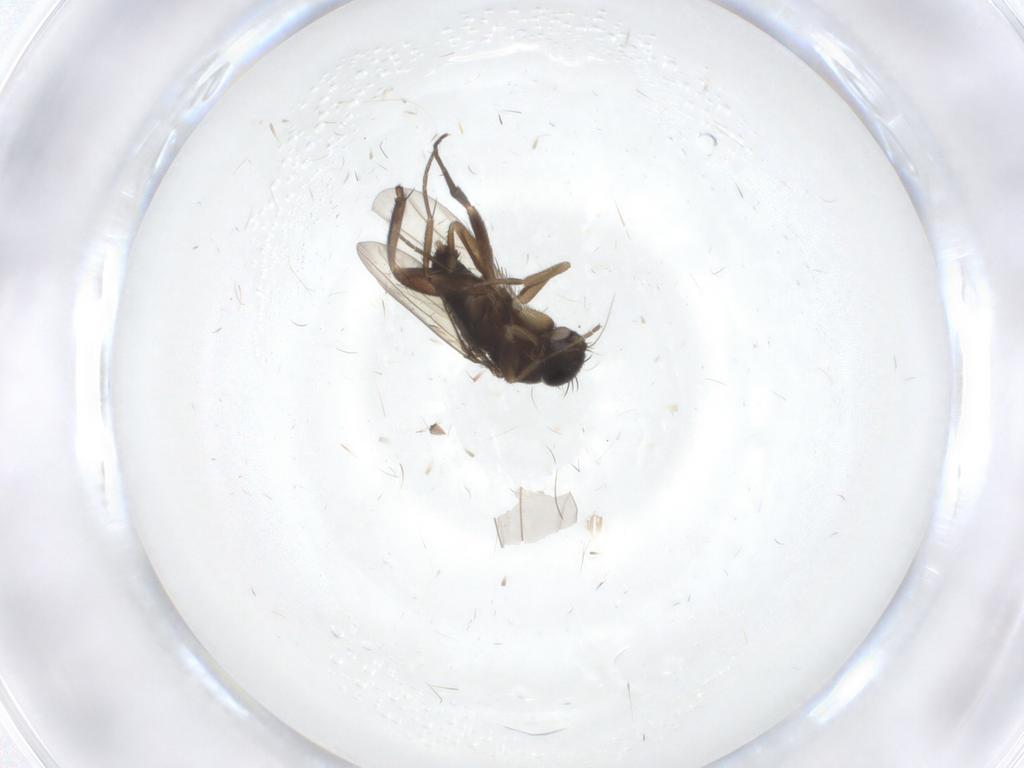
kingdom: Animalia
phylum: Arthropoda
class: Insecta
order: Diptera
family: Phoridae
